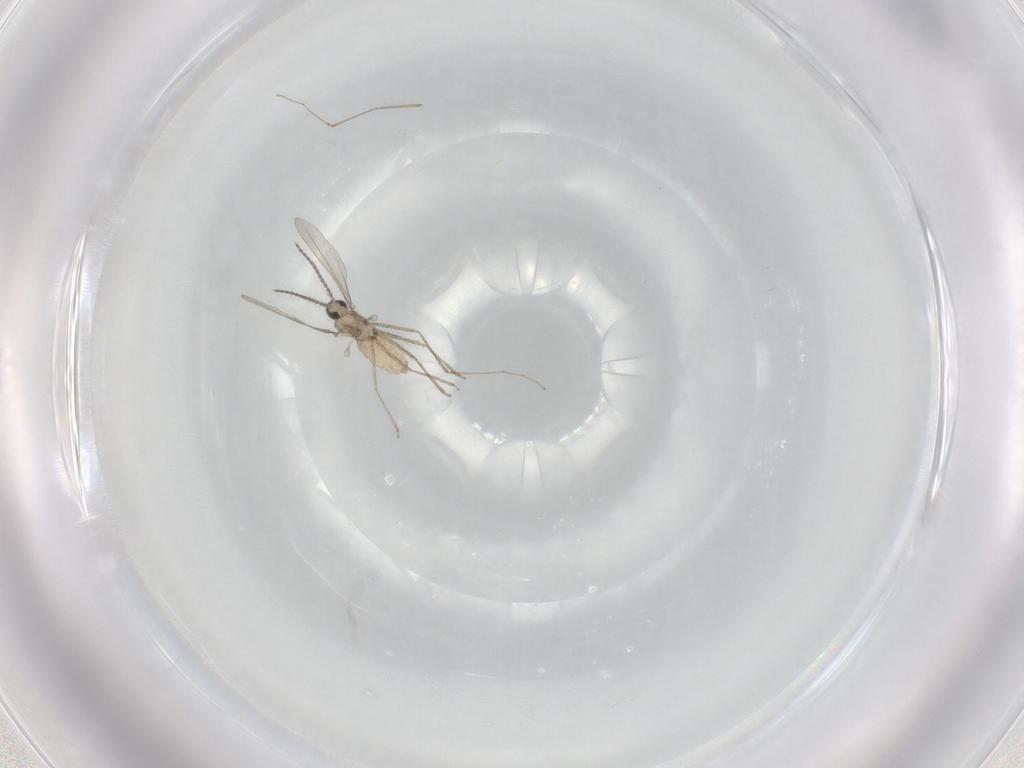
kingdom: Animalia
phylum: Arthropoda
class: Insecta
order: Diptera
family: Cecidomyiidae
